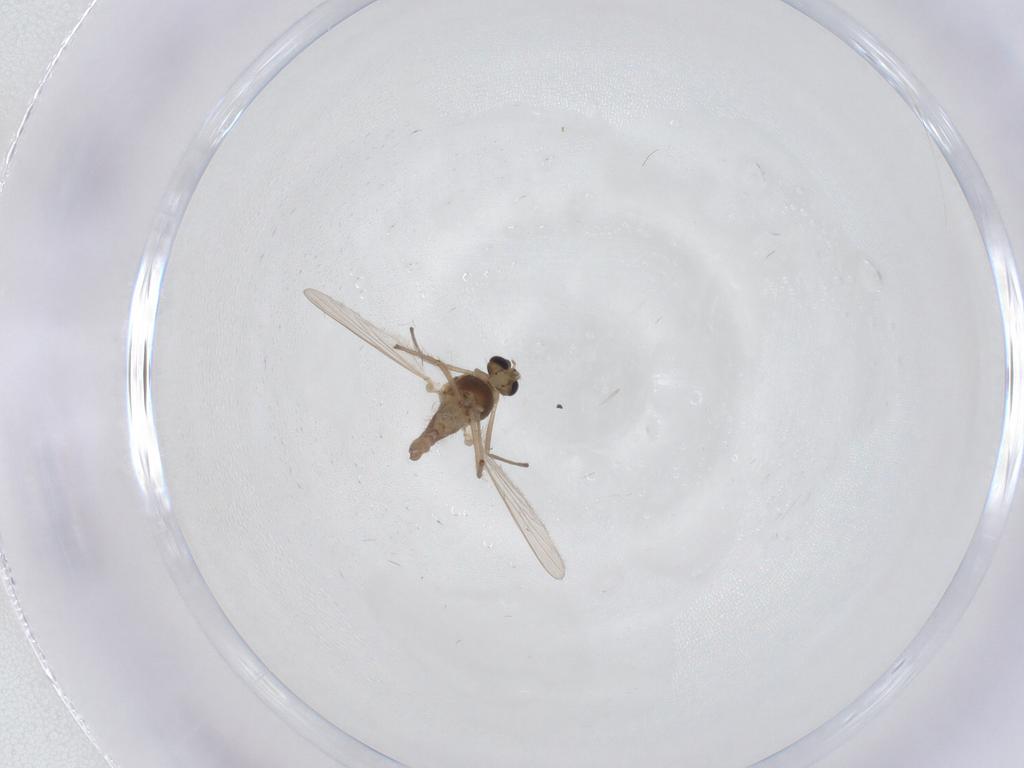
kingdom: Animalia
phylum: Arthropoda
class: Insecta
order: Diptera
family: Chironomidae
